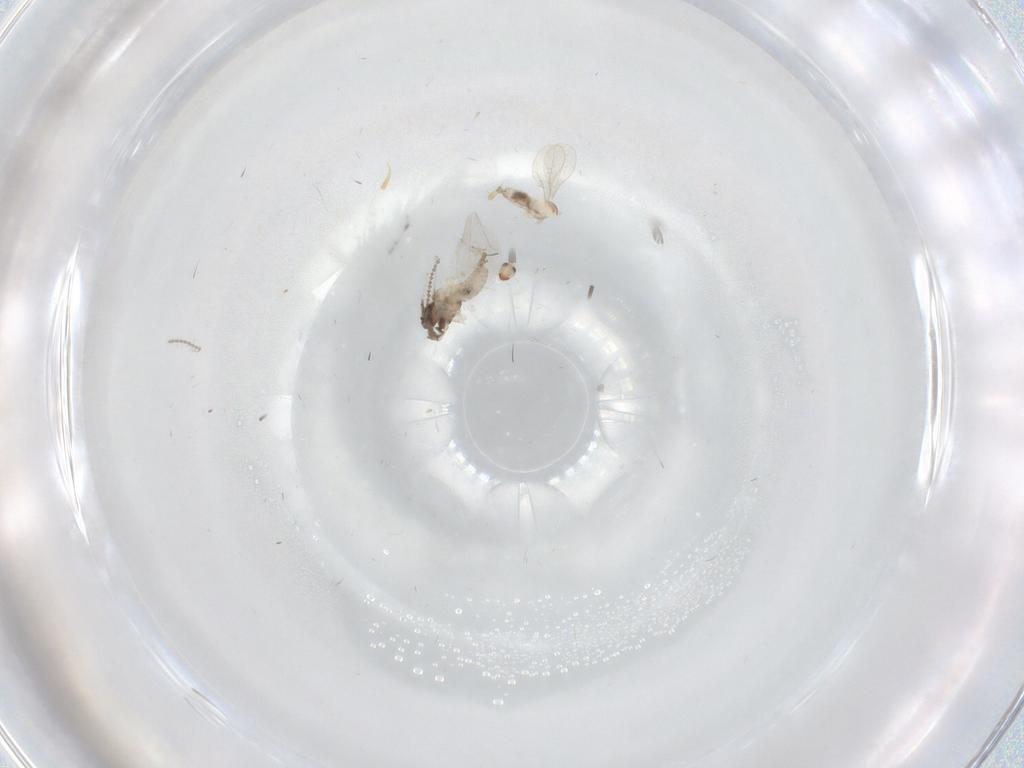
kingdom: Animalia
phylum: Arthropoda
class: Insecta
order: Diptera
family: Cecidomyiidae
